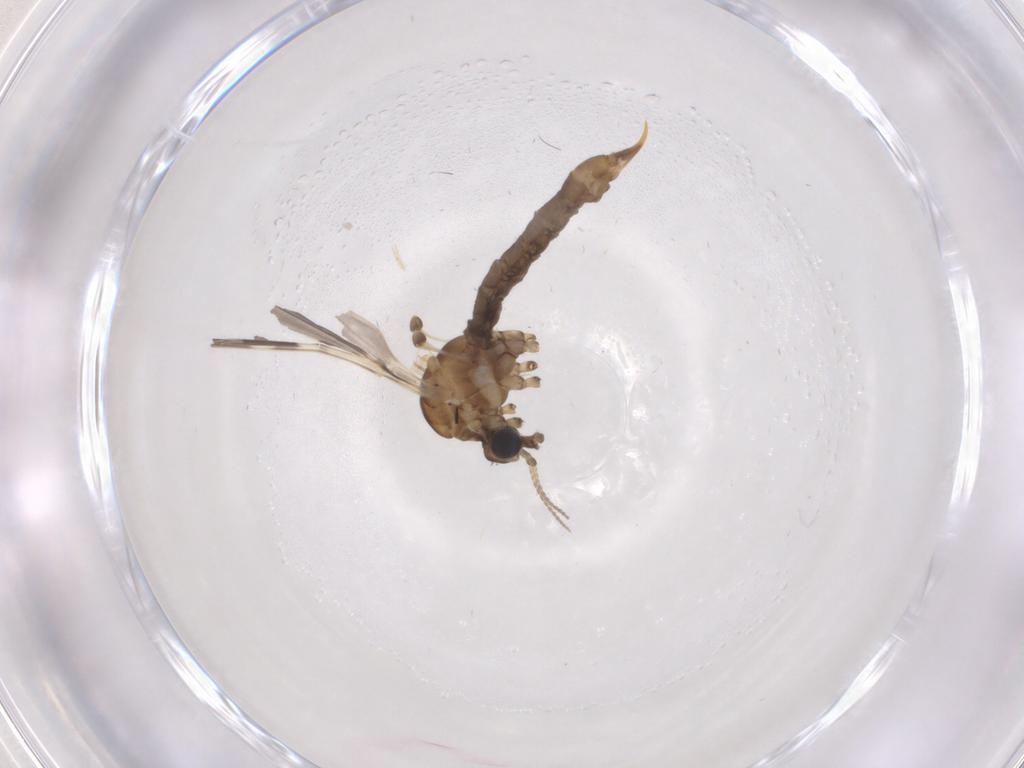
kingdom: Animalia
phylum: Arthropoda
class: Insecta
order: Diptera
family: Limoniidae
